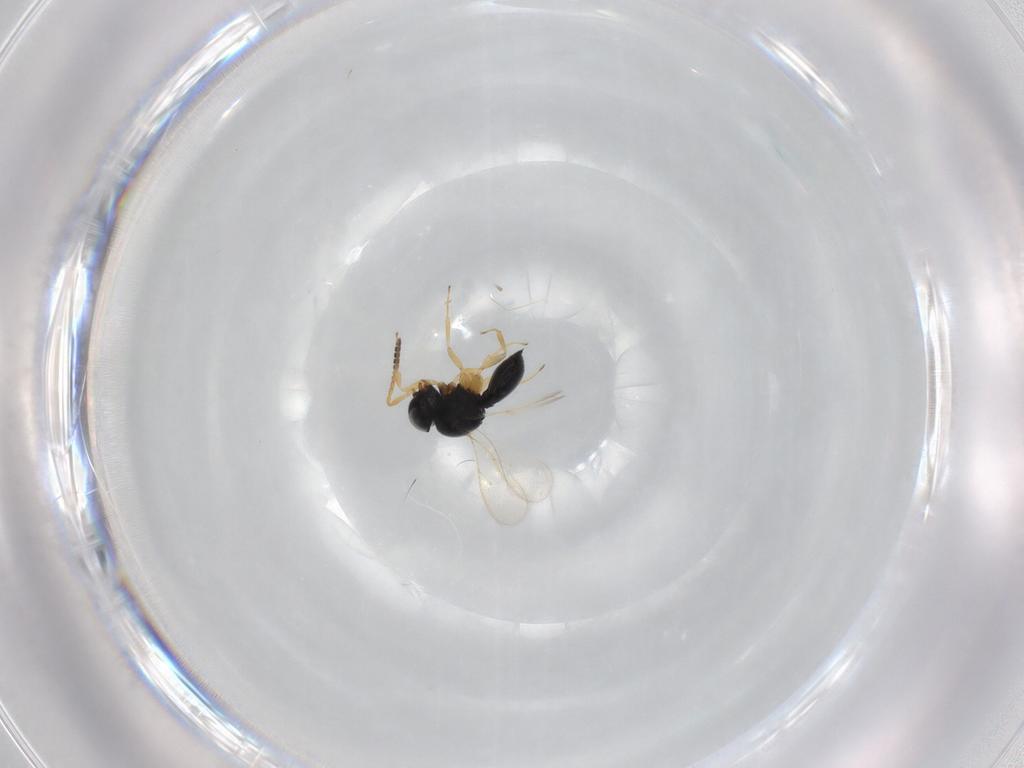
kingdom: Animalia
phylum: Arthropoda
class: Insecta
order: Hymenoptera
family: Scelionidae
